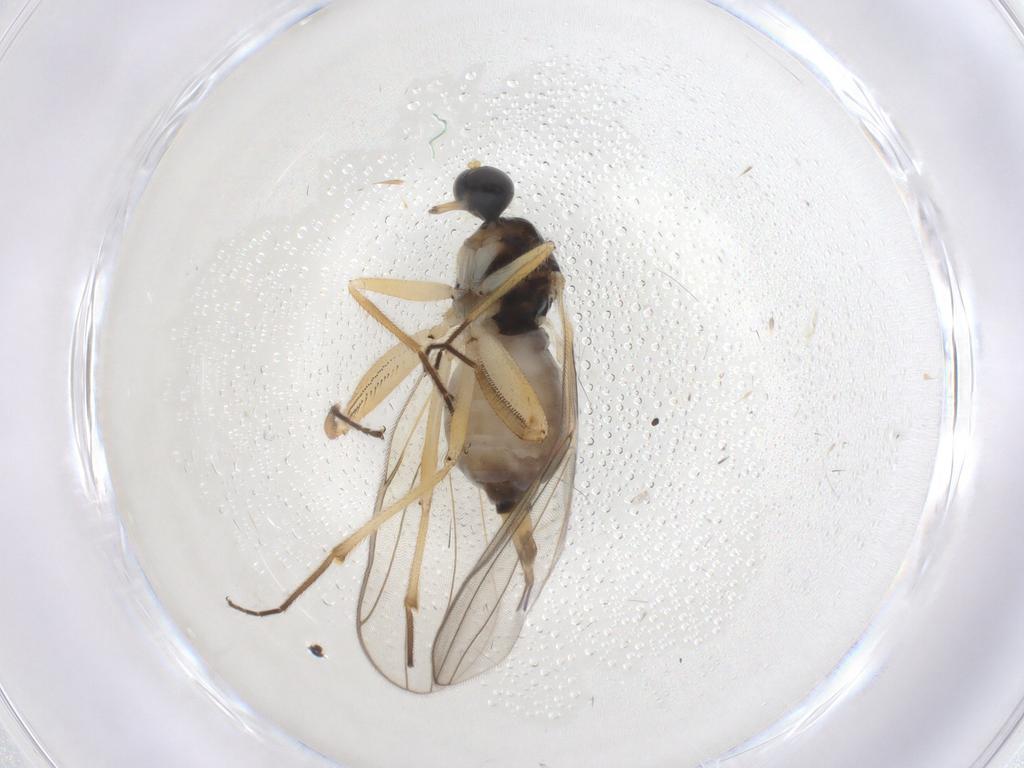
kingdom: Animalia
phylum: Arthropoda
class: Insecta
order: Diptera
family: Hybotidae
